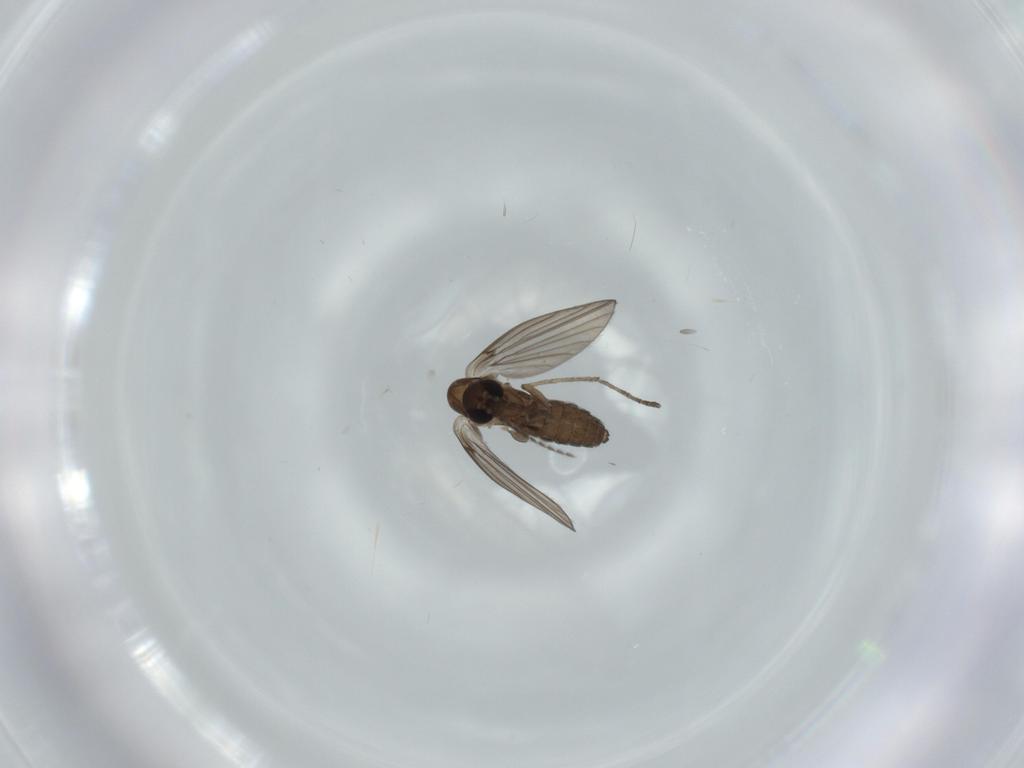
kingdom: Animalia
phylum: Arthropoda
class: Insecta
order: Diptera
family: Psychodidae
